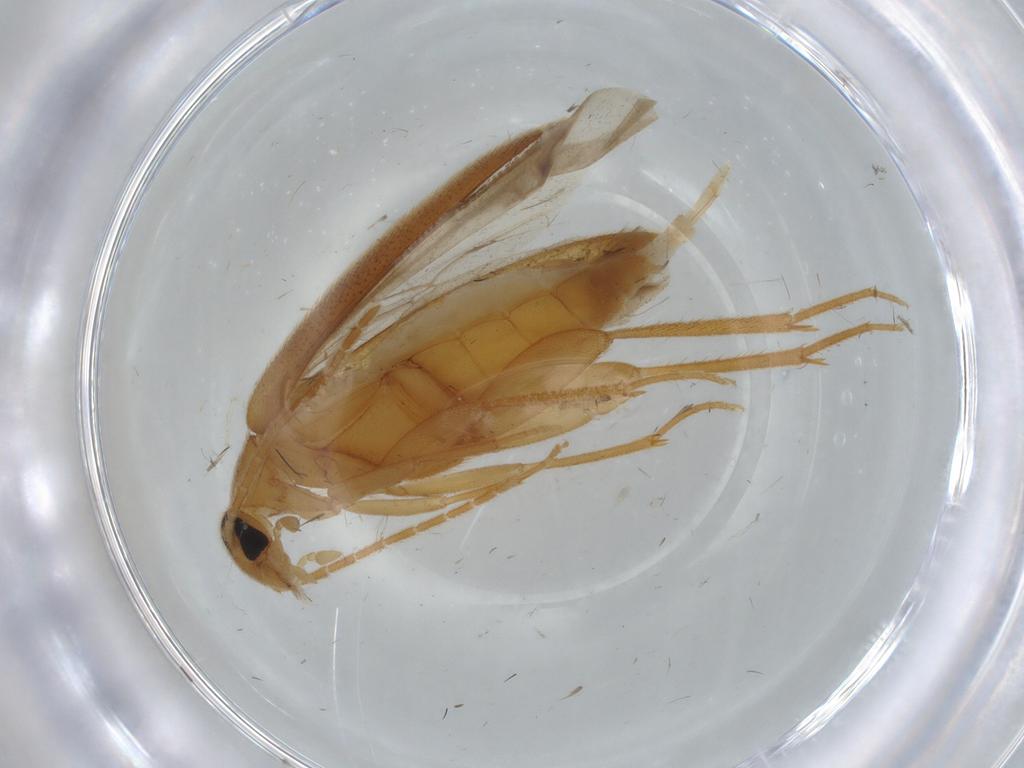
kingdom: Animalia
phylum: Arthropoda
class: Insecta
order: Coleoptera
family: Scraptiidae
